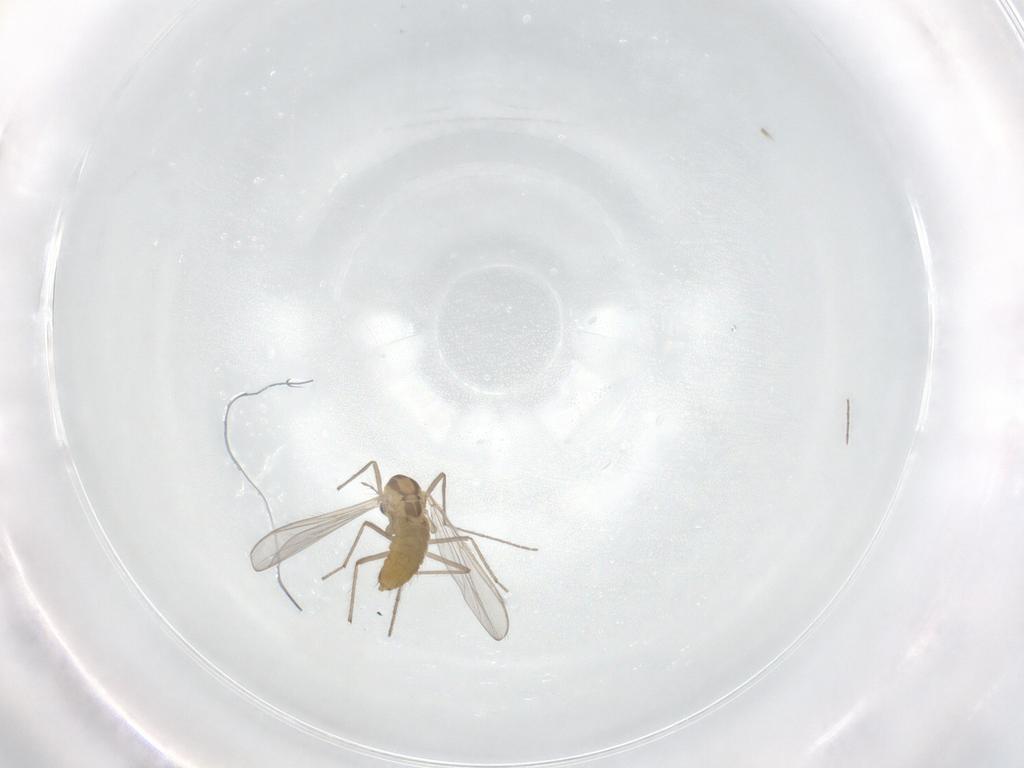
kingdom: Animalia
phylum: Arthropoda
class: Insecta
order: Diptera
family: Chironomidae
